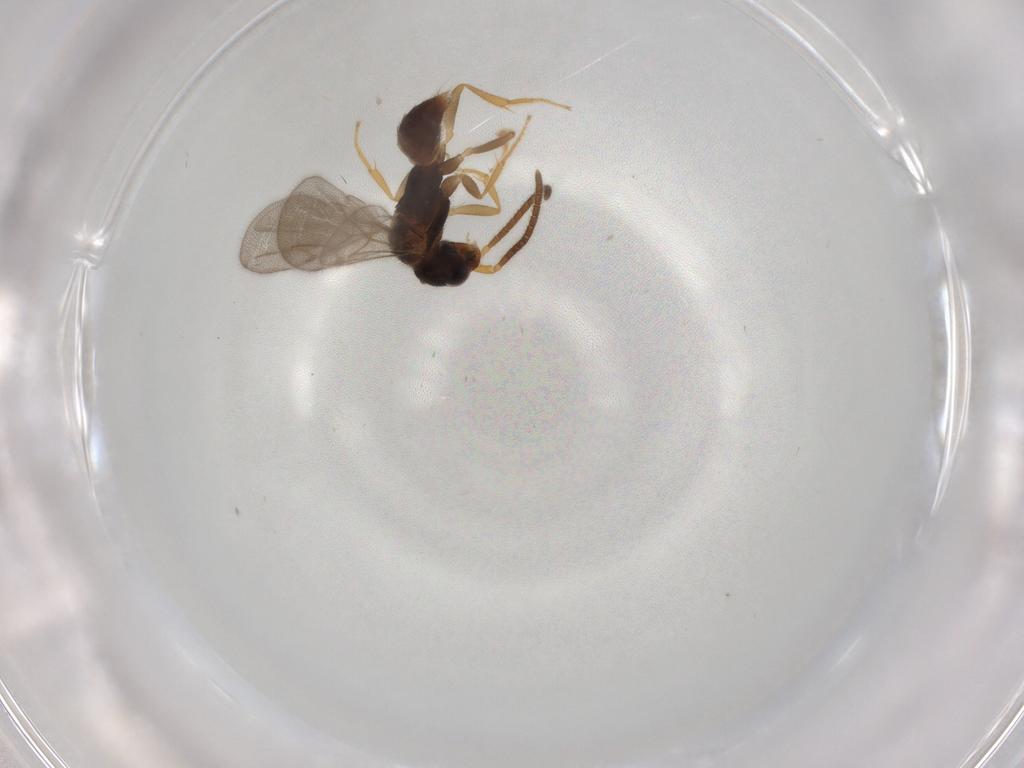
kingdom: Animalia
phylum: Arthropoda
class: Insecta
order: Hymenoptera
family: Bethylidae
